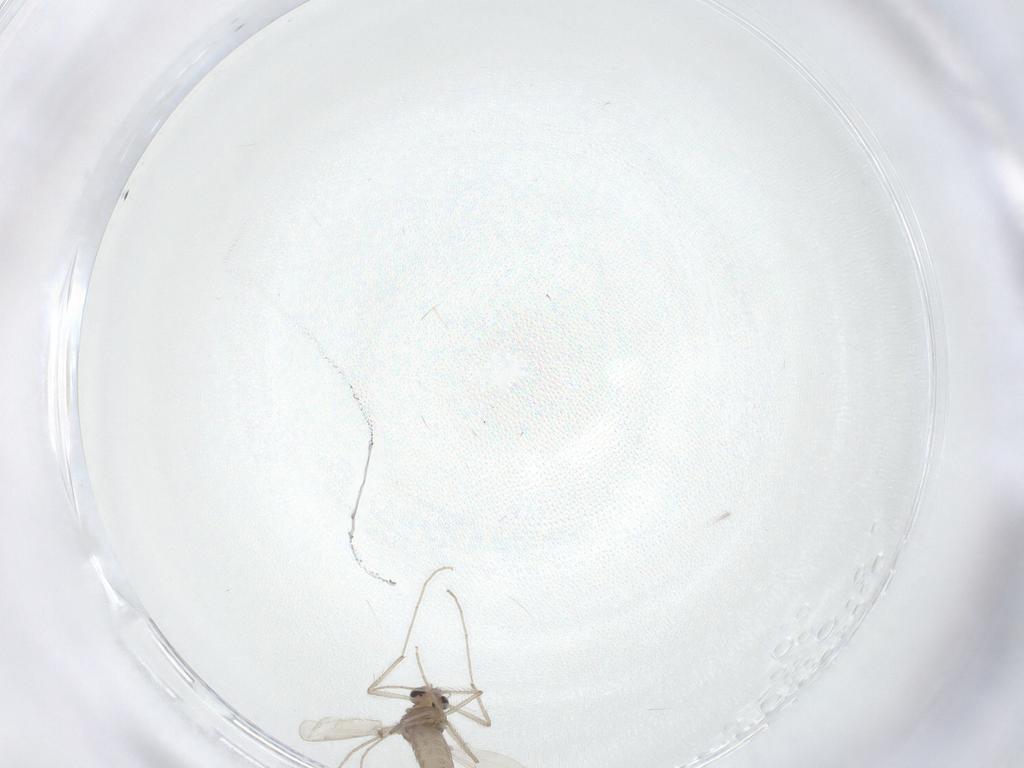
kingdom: Animalia
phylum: Arthropoda
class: Insecta
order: Diptera
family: Chironomidae
